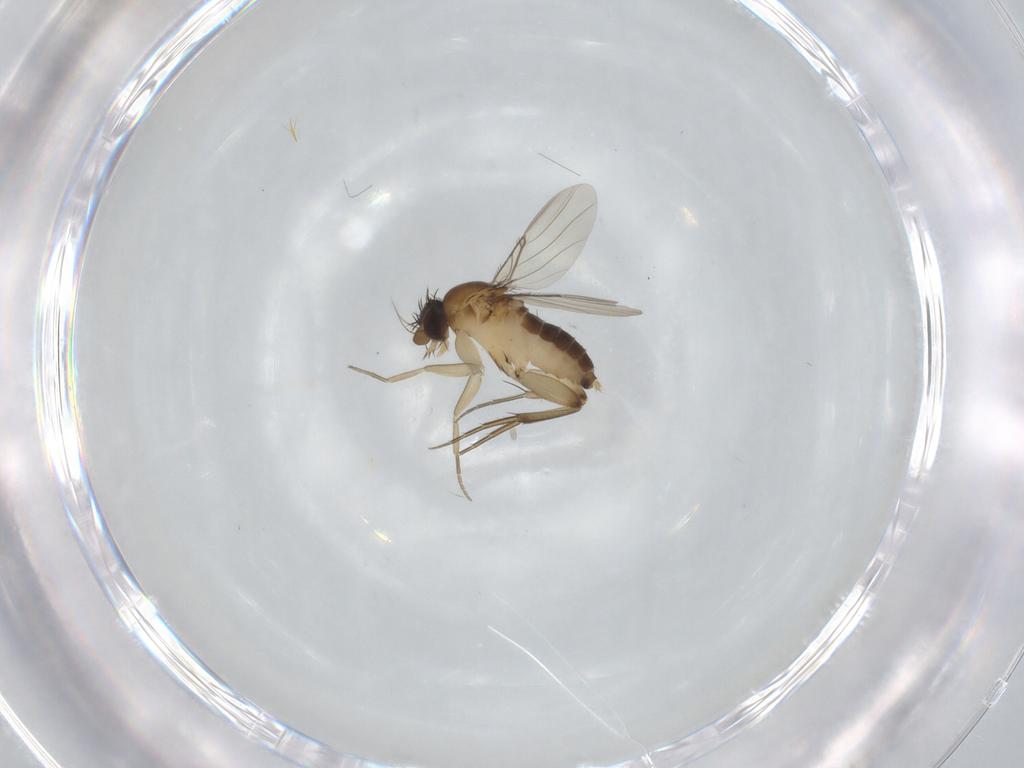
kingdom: Animalia
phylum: Arthropoda
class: Insecta
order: Diptera
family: Phoridae
